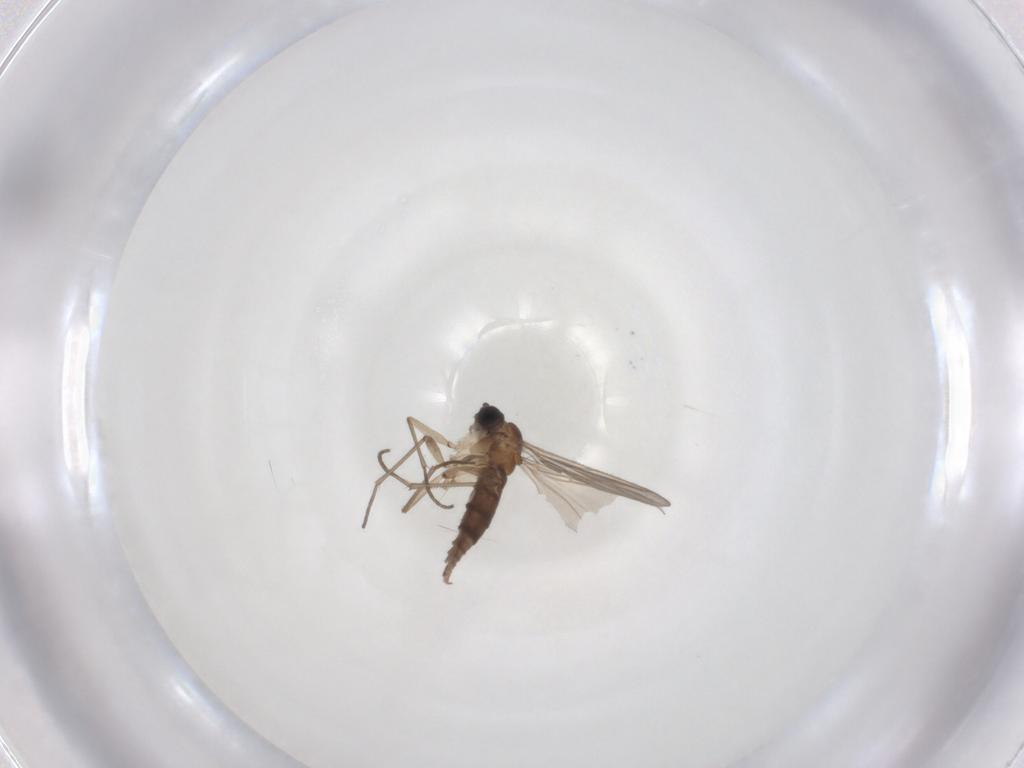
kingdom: Animalia
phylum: Arthropoda
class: Insecta
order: Diptera
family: Sciaridae
